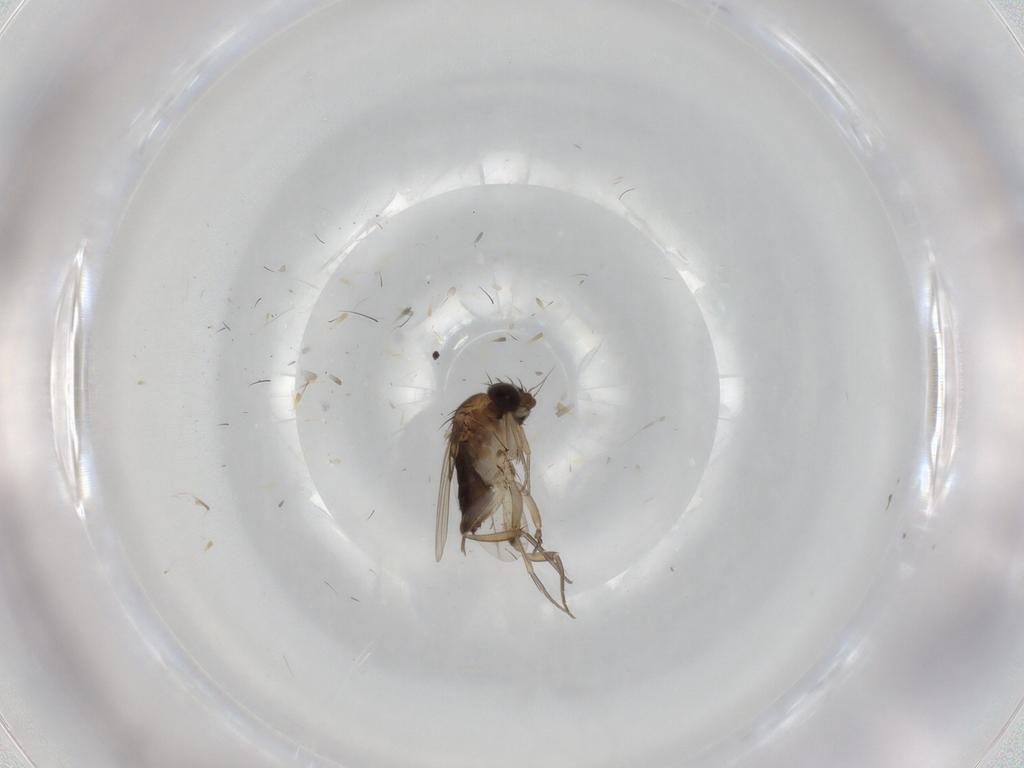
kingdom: Animalia
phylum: Arthropoda
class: Insecta
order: Diptera
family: Phoridae
